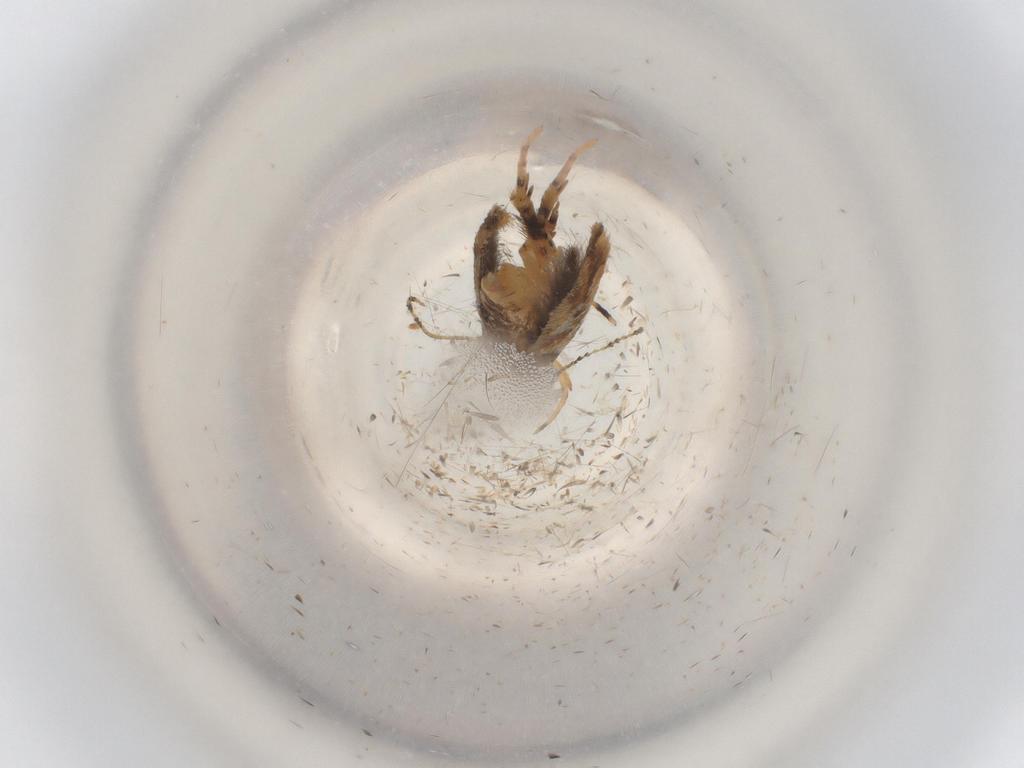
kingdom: Animalia
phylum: Arthropoda
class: Insecta
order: Lepidoptera
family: Cosmopterigidae
